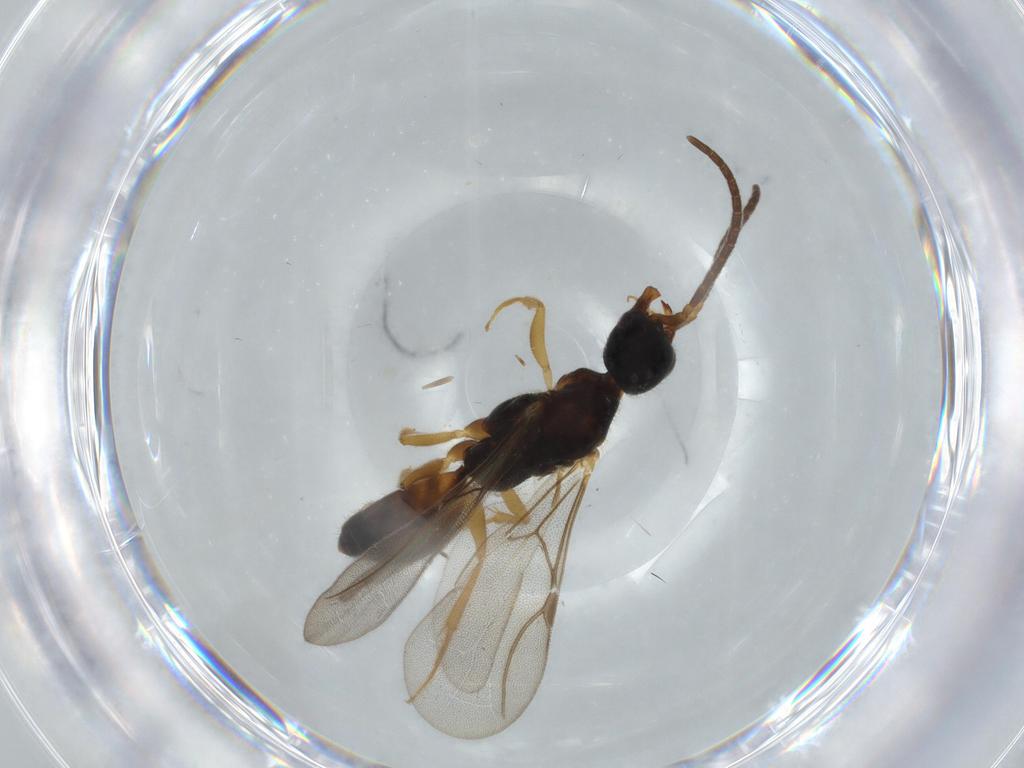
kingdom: Animalia
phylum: Arthropoda
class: Insecta
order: Hymenoptera
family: Bethylidae
